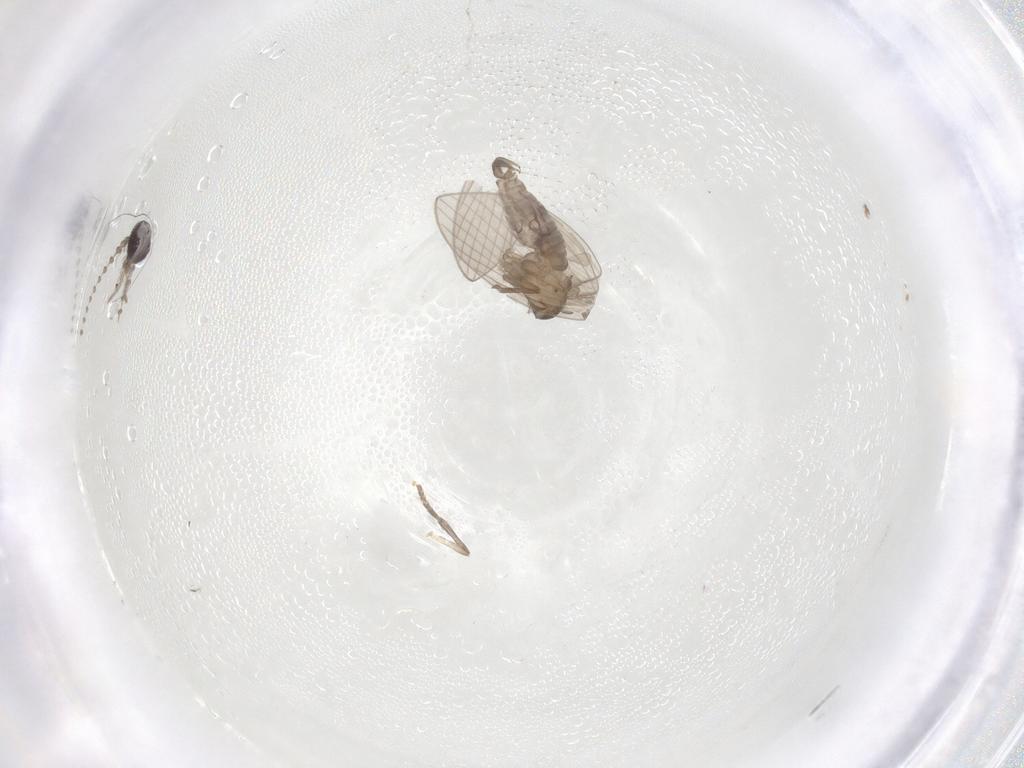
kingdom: Animalia
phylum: Arthropoda
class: Insecta
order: Diptera
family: Psychodidae
